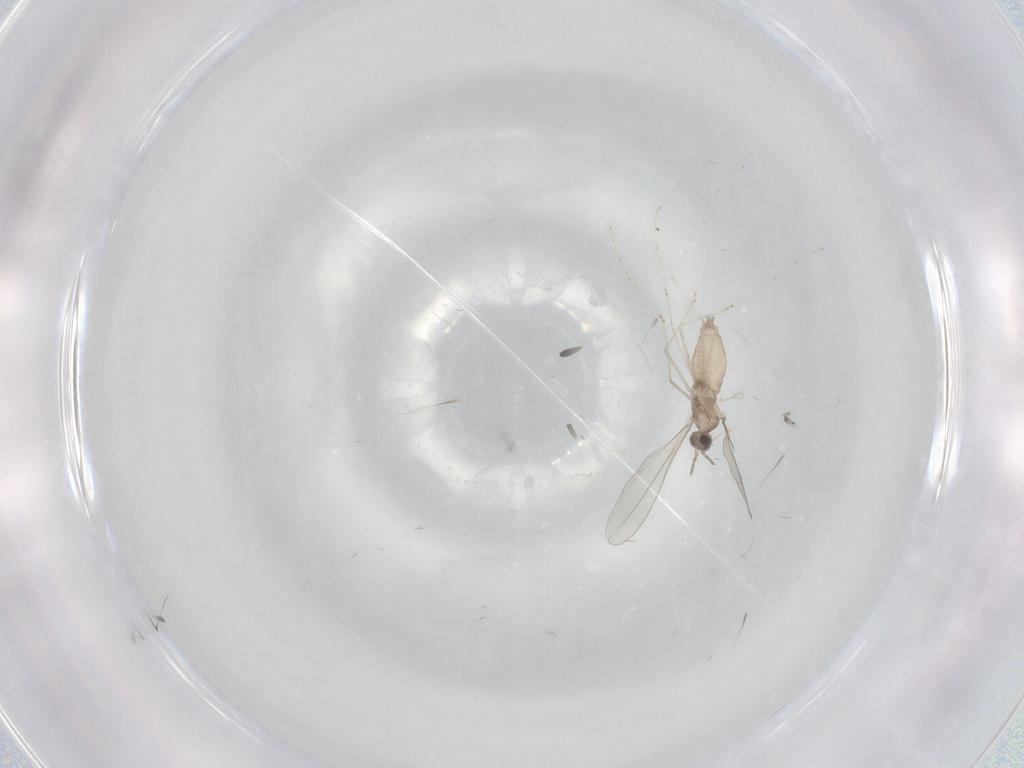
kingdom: Animalia
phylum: Arthropoda
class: Insecta
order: Diptera
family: Cecidomyiidae
